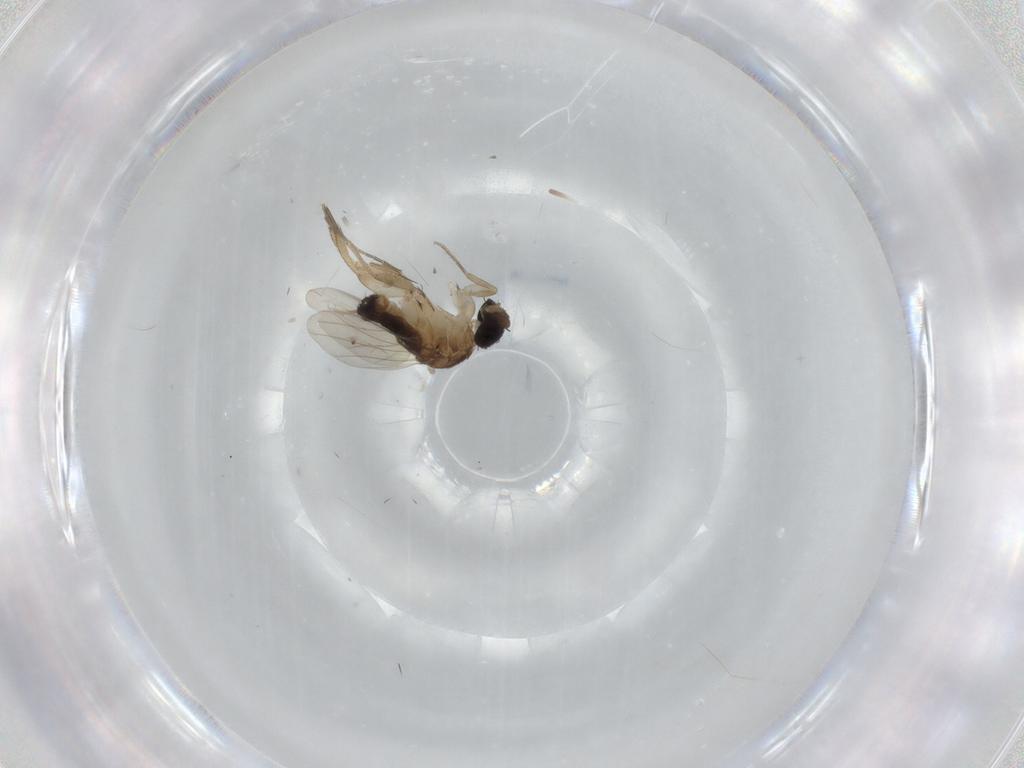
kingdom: Animalia
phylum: Arthropoda
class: Insecta
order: Diptera
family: Phoridae
